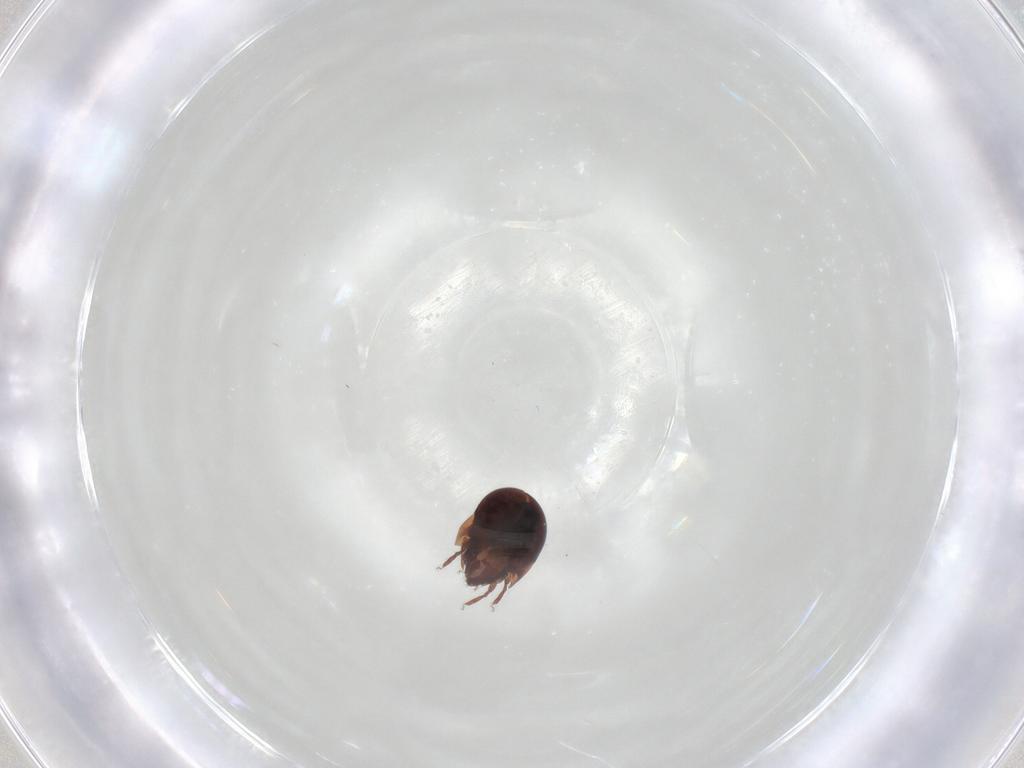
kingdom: Animalia
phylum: Arthropoda
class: Arachnida
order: Sarcoptiformes
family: Humerobatidae
